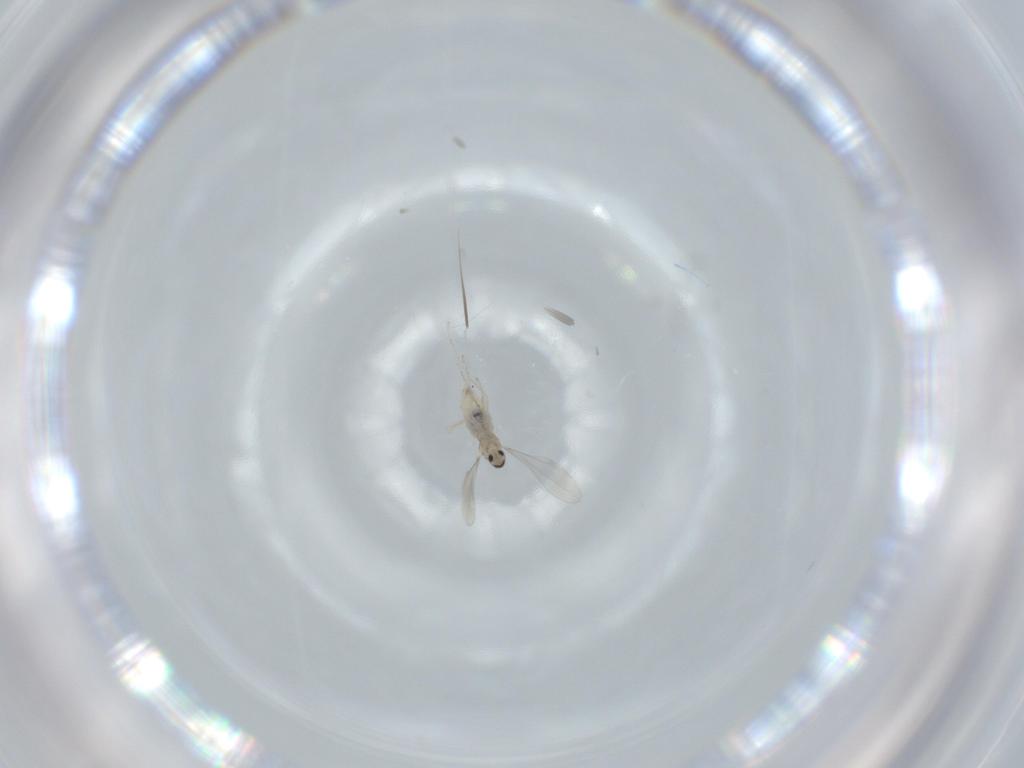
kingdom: Animalia
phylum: Arthropoda
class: Insecta
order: Diptera
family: Cecidomyiidae
